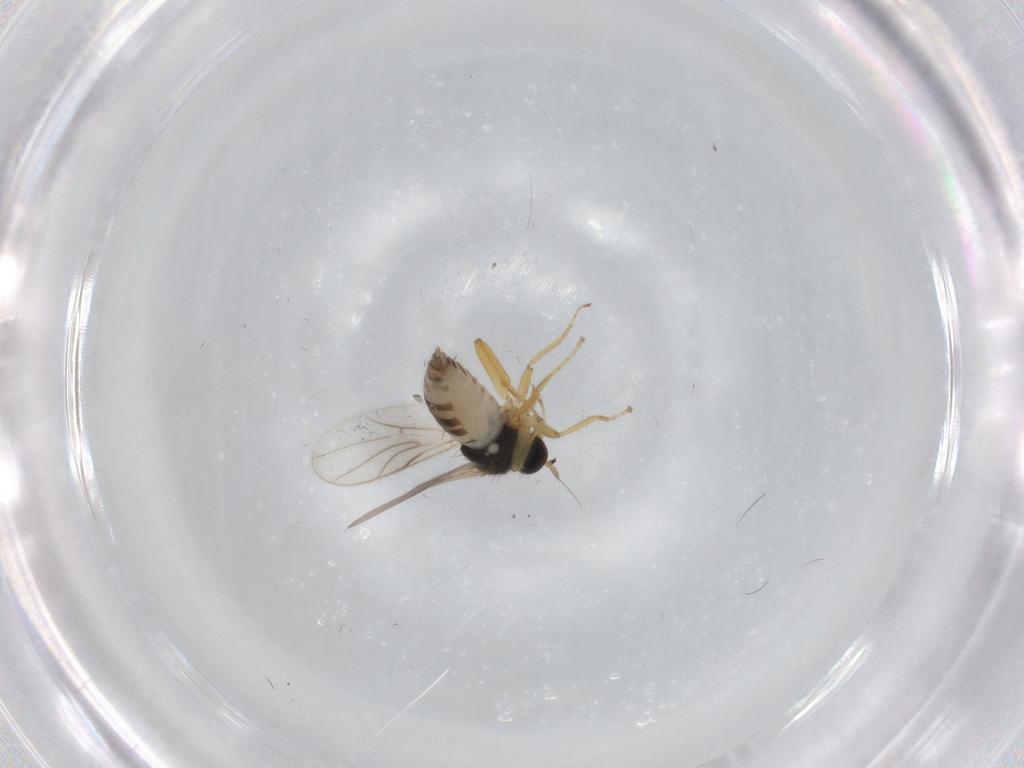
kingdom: Animalia
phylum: Arthropoda
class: Insecta
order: Diptera
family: Hybotidae
